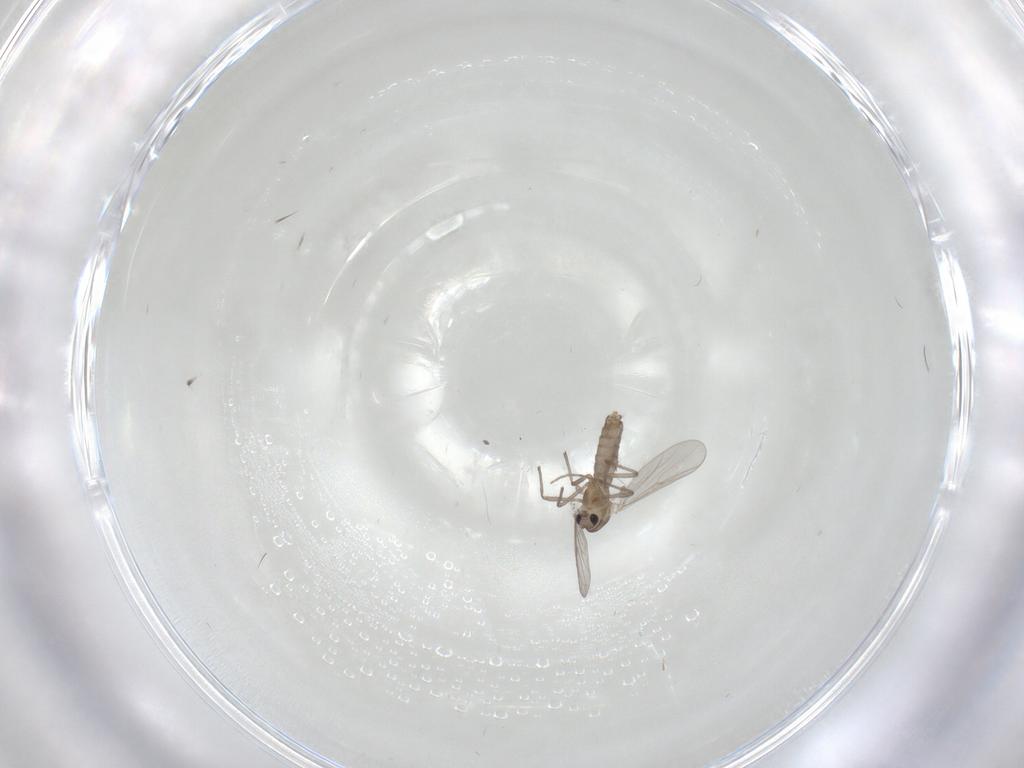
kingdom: Animalia
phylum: Arthropoda
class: Insecta
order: Diptera
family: Chironomidae
